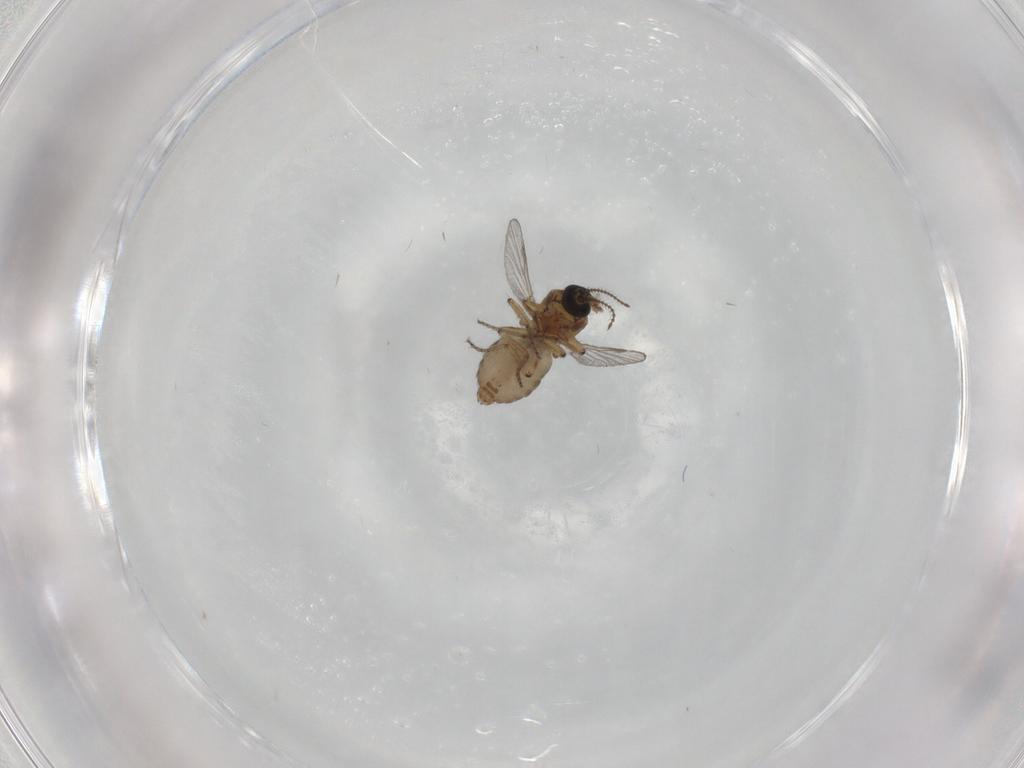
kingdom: Animalia
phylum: Arthropoda
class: Insecta
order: Diptera
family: Ceratopogonidae
